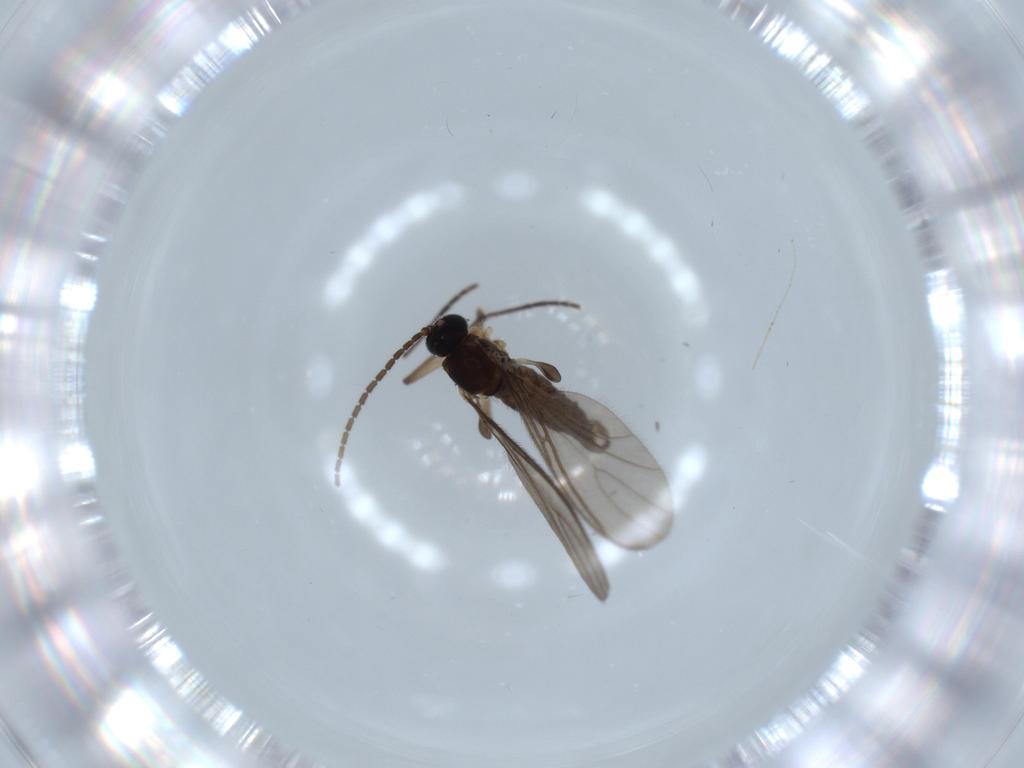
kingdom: Animalia
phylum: Arthropoda
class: Insecta
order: Diptera
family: Sciaridae
